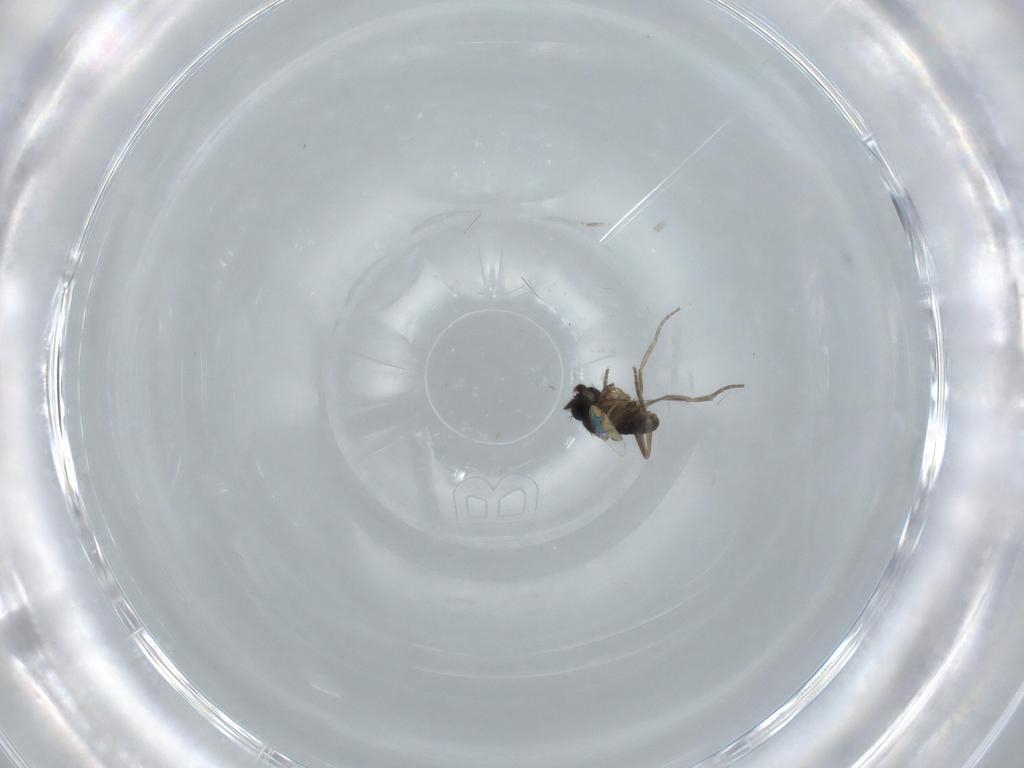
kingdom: Animalia
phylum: Arthropoda
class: Insecta
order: Diptera
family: Phoridae
